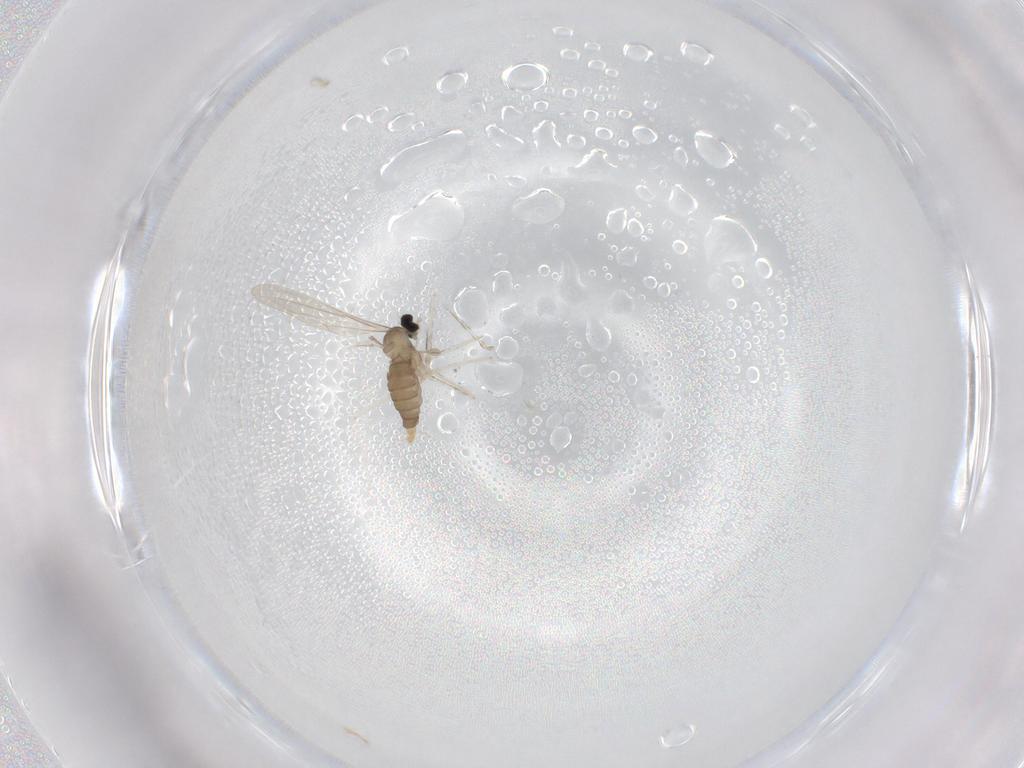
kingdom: Animalia
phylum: Arthropoda
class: Insecta
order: Diptera
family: Cecidomyiidae
